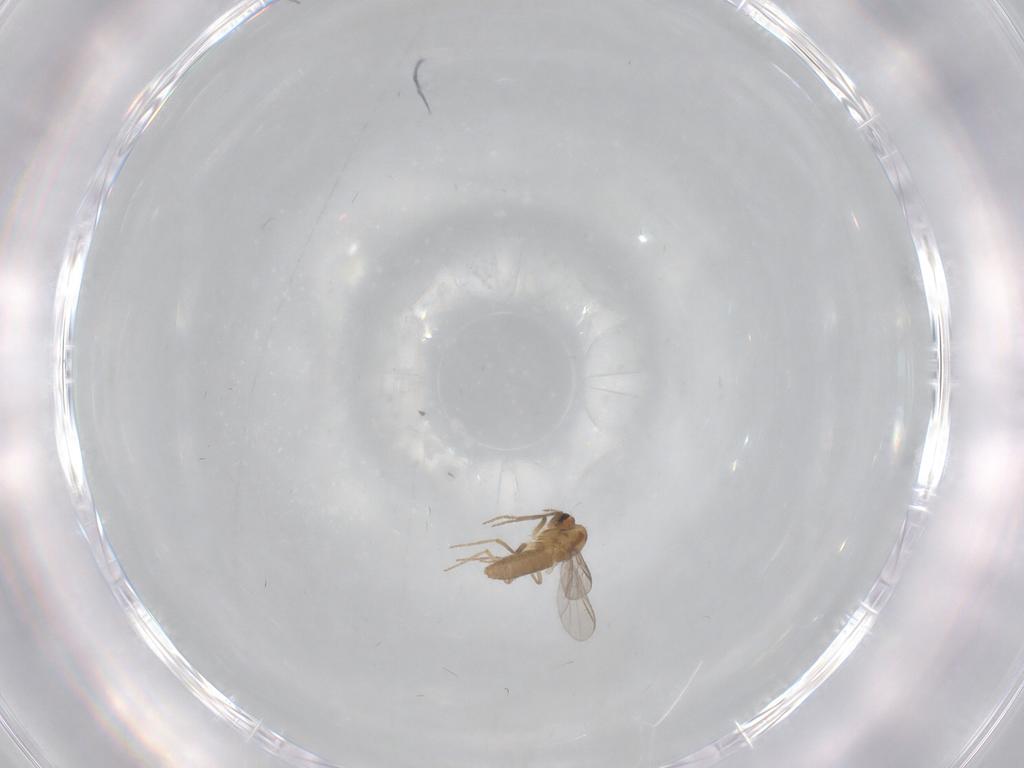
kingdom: Animalia
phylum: Arthropoda
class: Insecta
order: Diptera
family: Chironomidae
